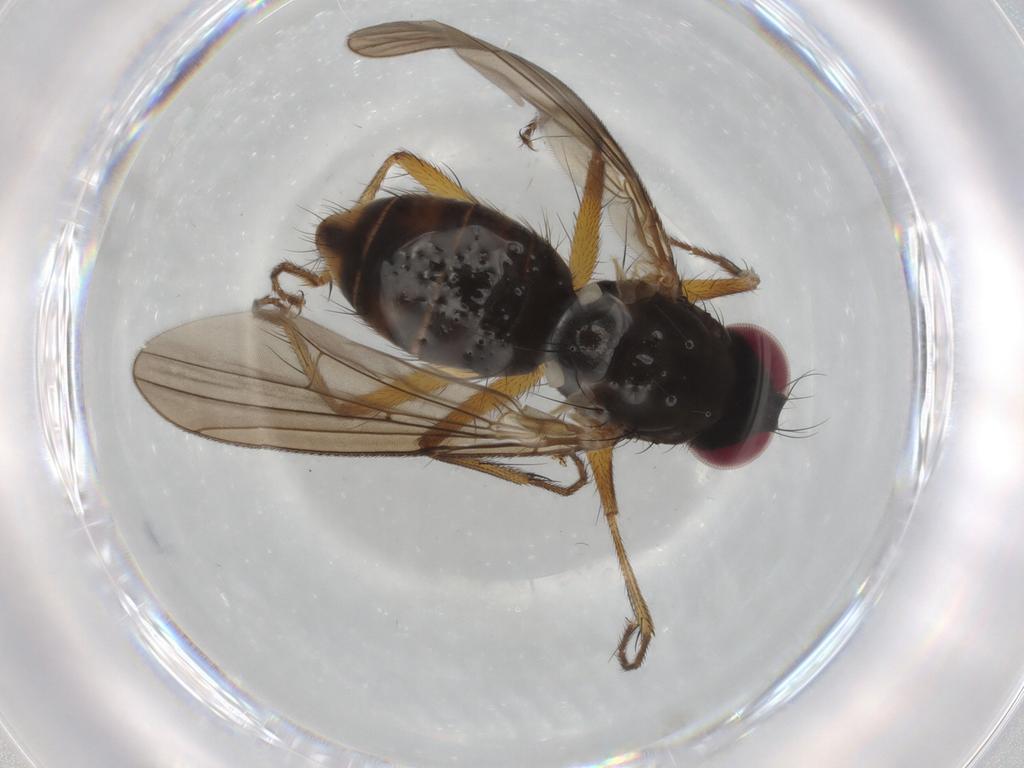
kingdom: Animalia
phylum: Arthropoda
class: Insecta
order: Diptera
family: Anthomyiidae
